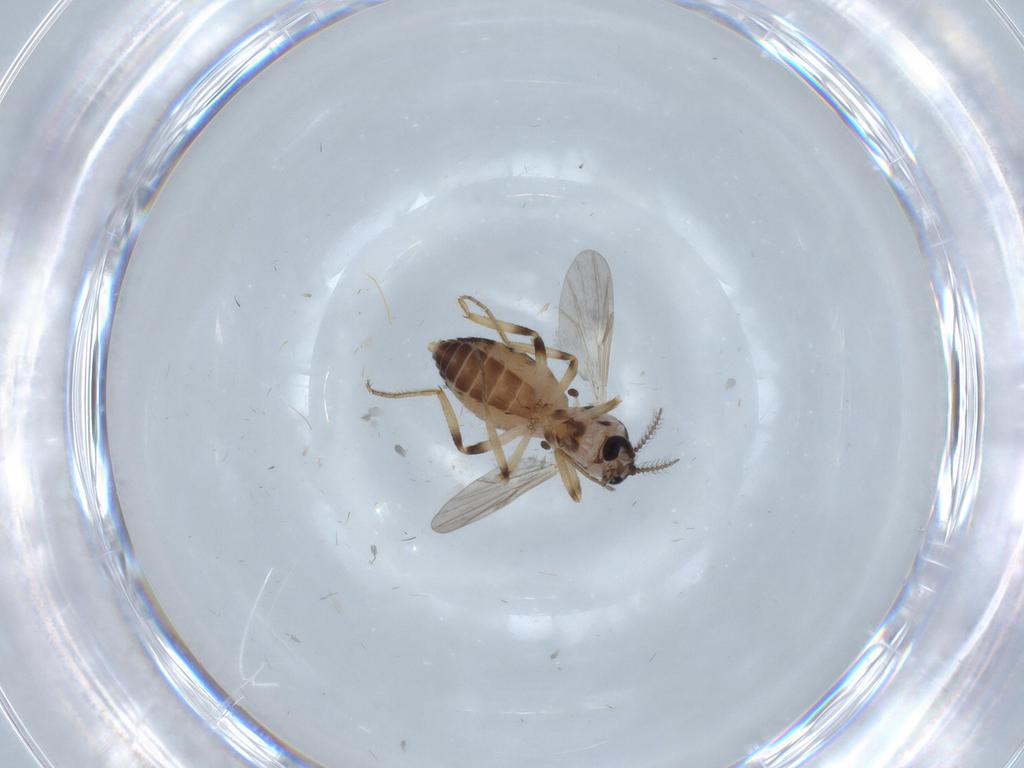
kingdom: Animalia
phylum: Arthropoda
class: Insecta
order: Diptera
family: Ceratopogonidae
